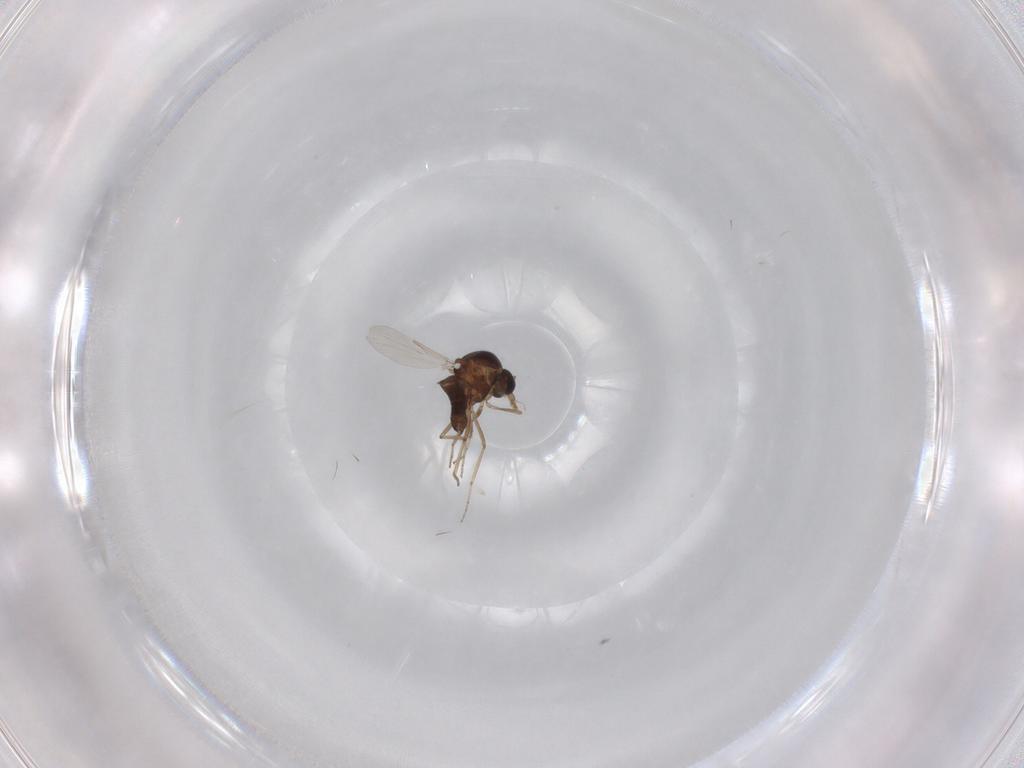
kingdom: Animalia
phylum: Arthropoda
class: Insecta
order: Diptera
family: Ceratopogonidae
